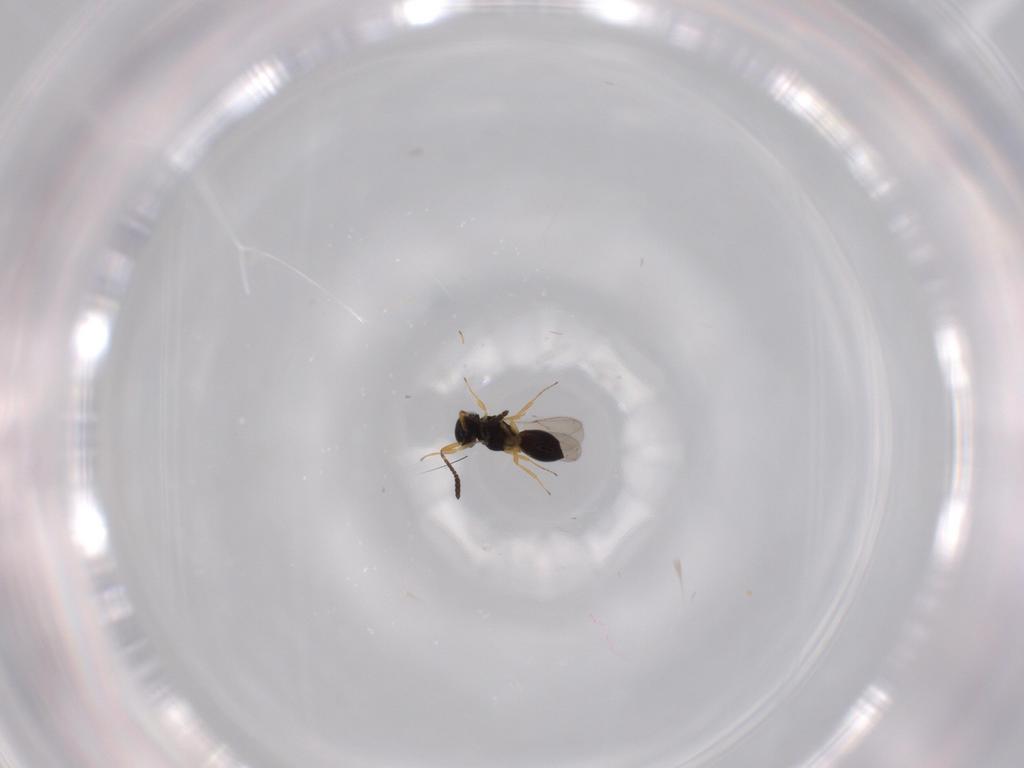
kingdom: Animalia
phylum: Arthropoda
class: Insecta
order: Hymenoptera
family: Scelionidae
